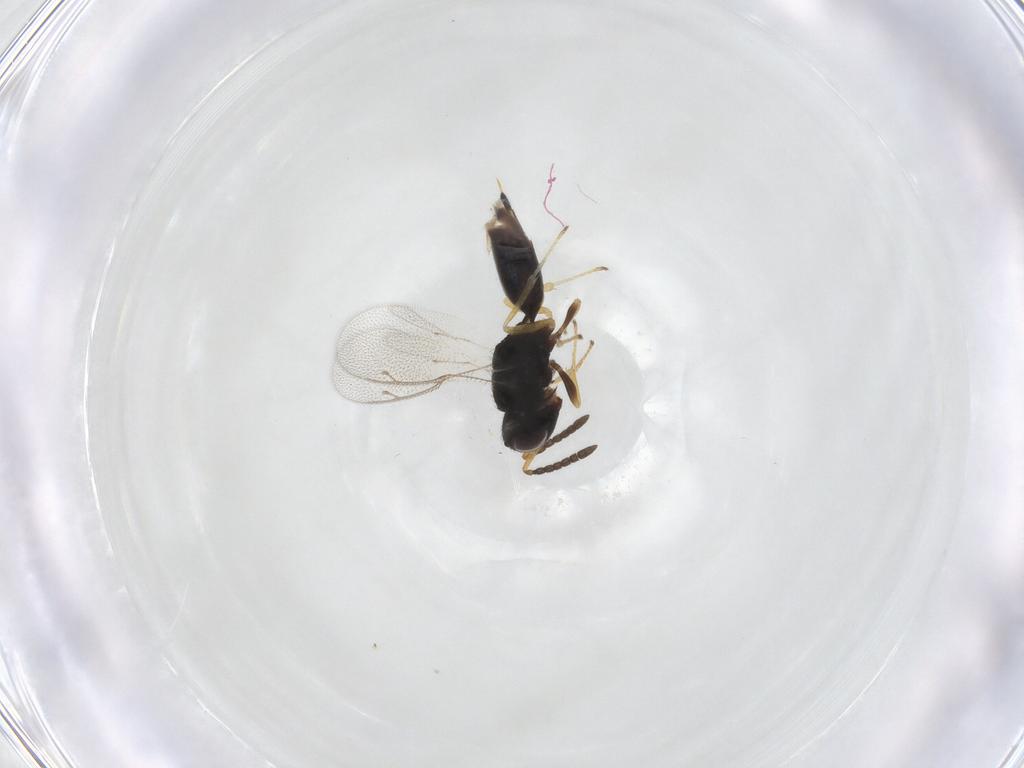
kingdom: Animalia
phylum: Arthropoda
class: Insecta
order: Hymenoptera
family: Pteromalidae
